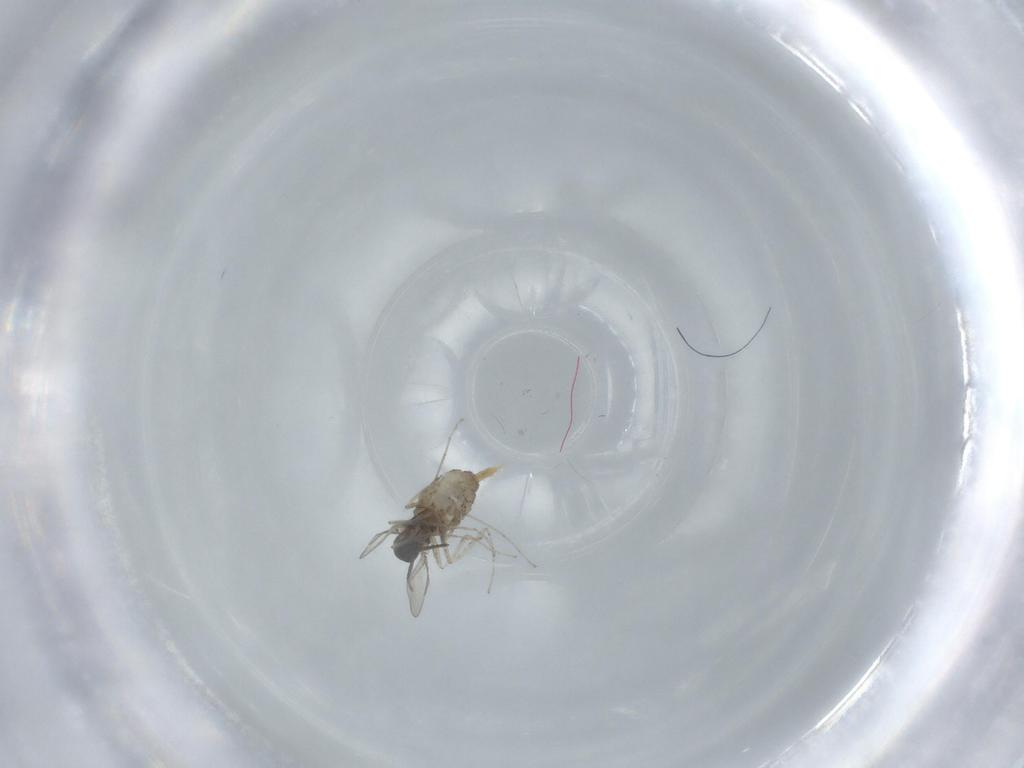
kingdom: Animalia
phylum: Arthropoda
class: Insecta
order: Diptera
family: Cecidomyiidae
